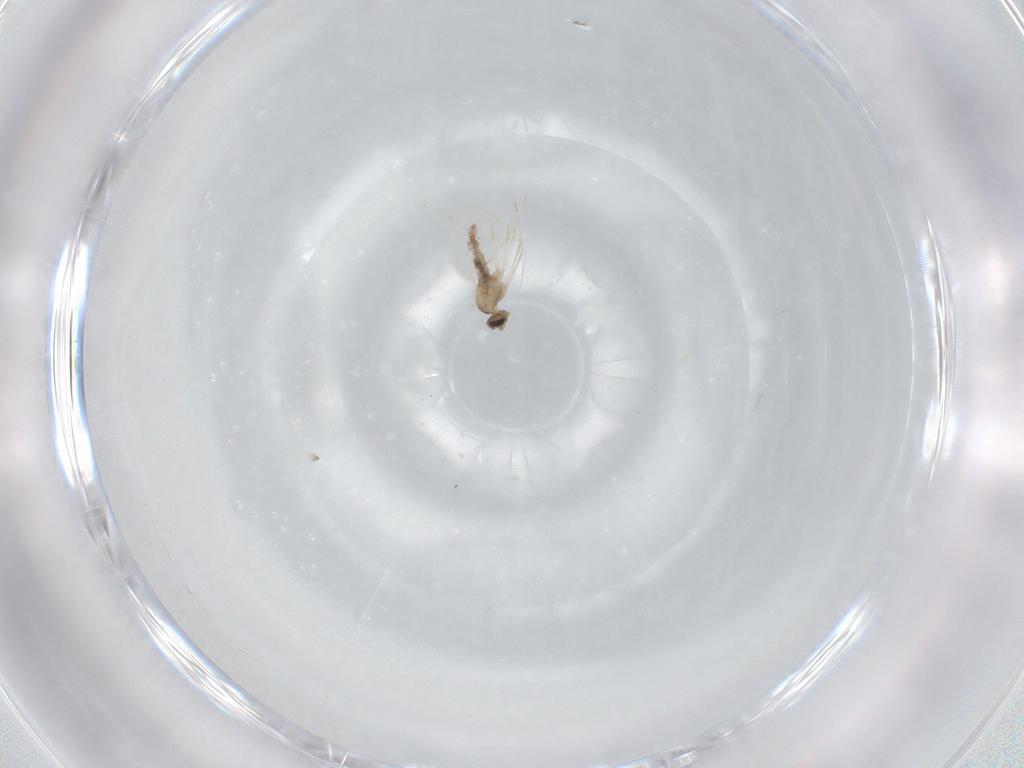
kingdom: Animalia
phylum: Arthropoda
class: Insecta
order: Diptera
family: Cecidomyiidae
